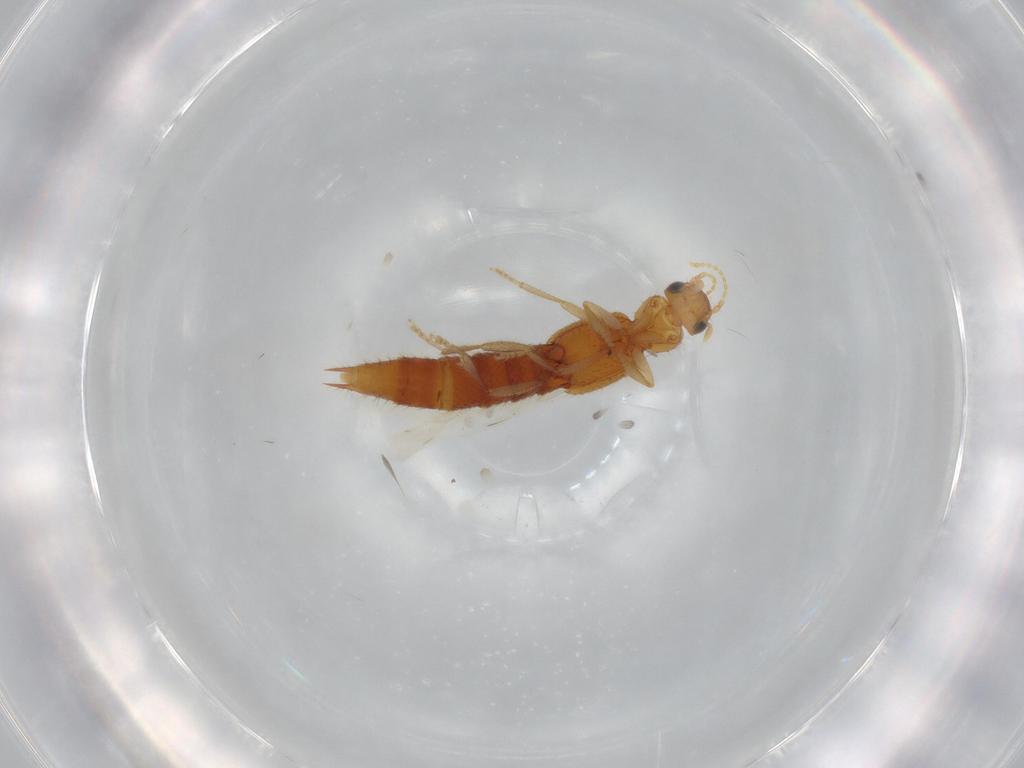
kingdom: Animalia
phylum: Arthropoda
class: Insecta
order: Coleoptera
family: Staphylinidae
